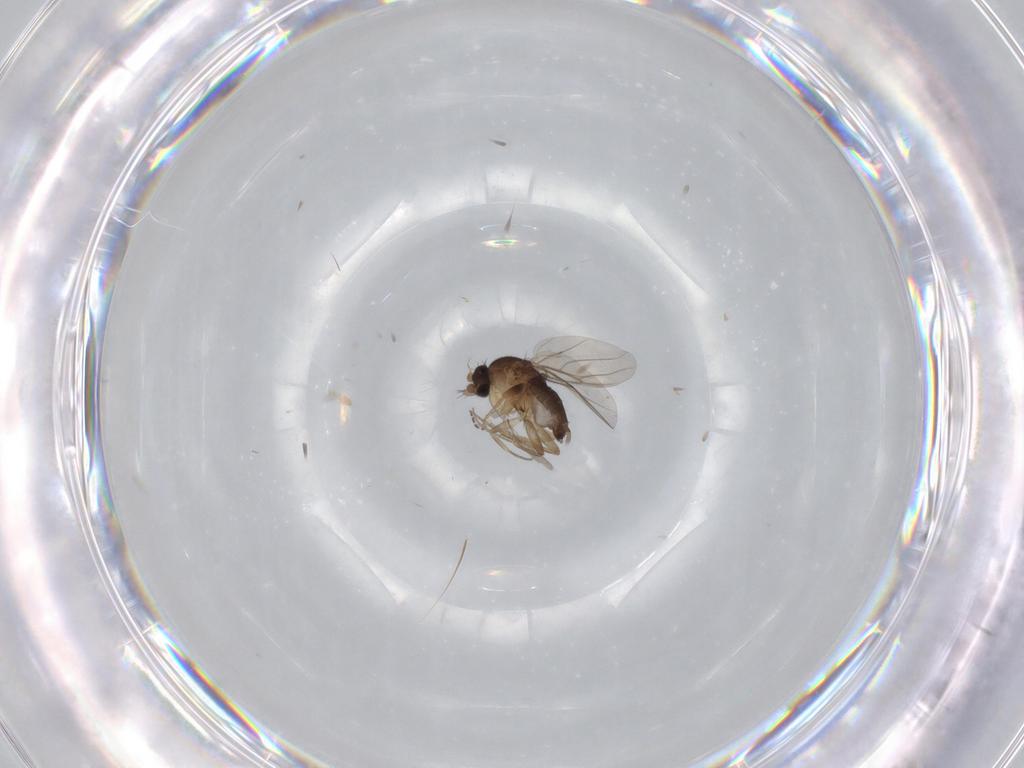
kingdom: Animalia
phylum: Arthropoda
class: Insecta
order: Diptera
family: Phoridae
